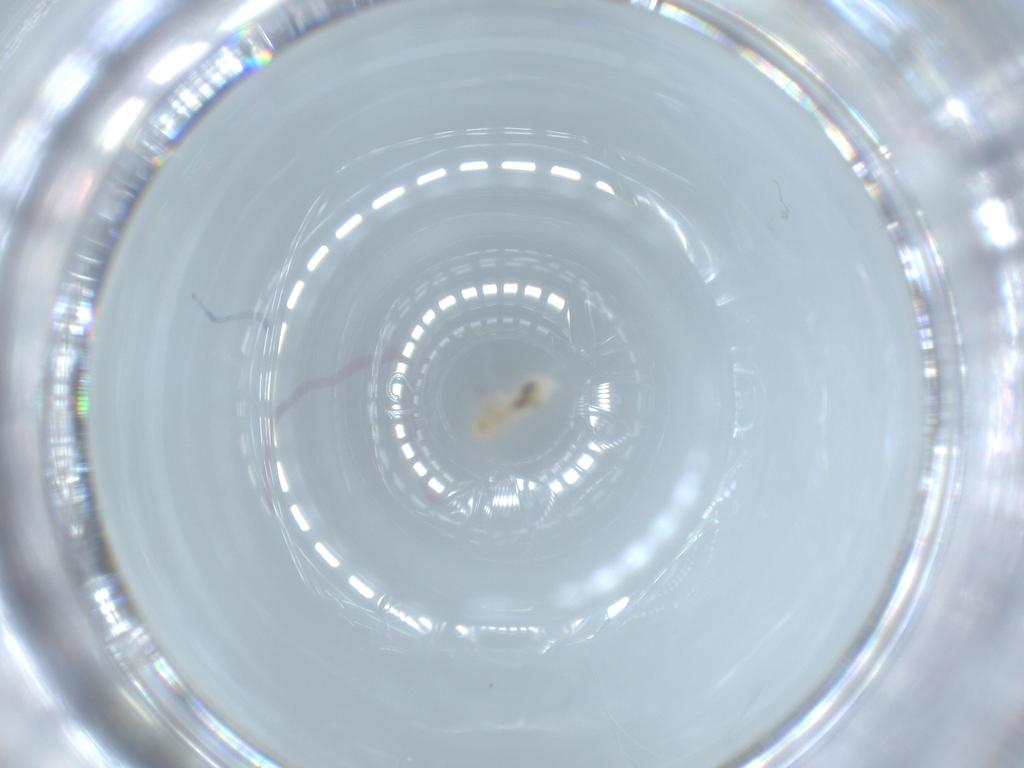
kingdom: Animalia
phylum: Arthropoda
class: Insecta
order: Psocodea
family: Caeciliusidae
